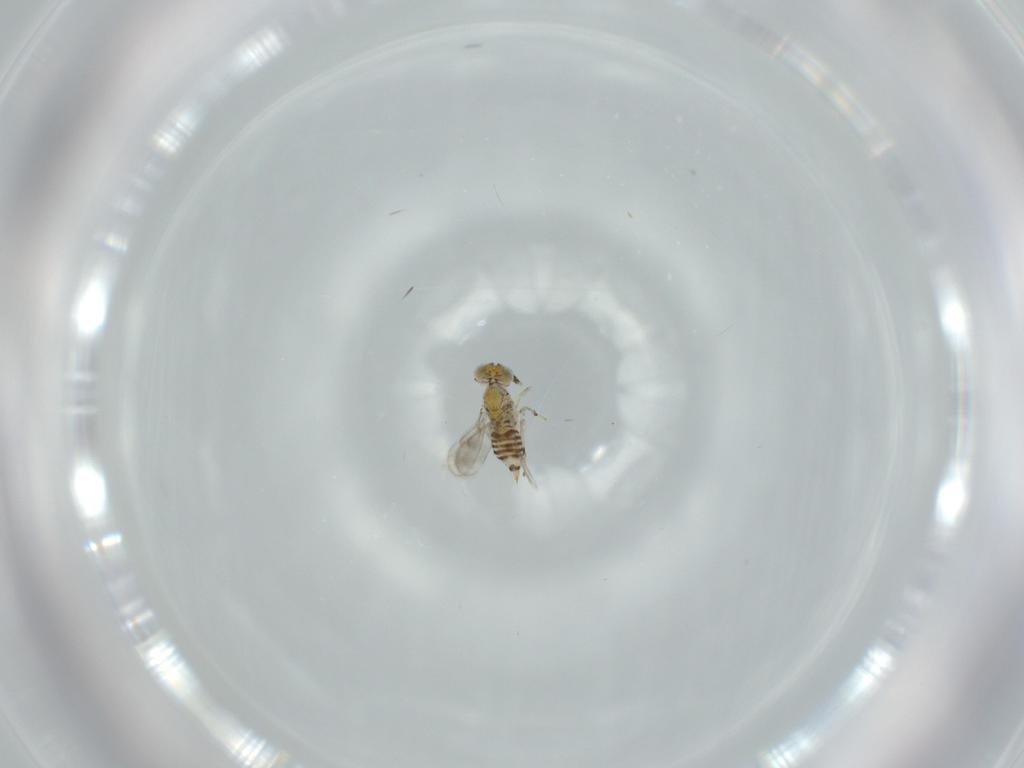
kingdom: Animalia
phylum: Arthropoda
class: Insecta
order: Hymenoptera
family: Aphelinidae
